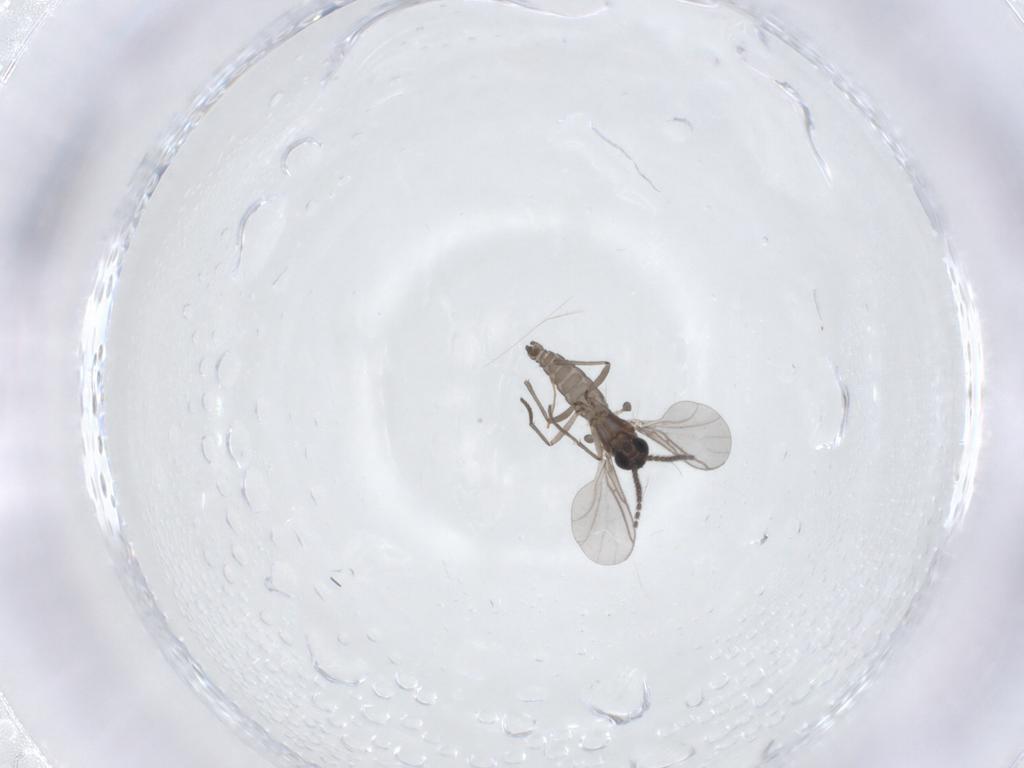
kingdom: Animalia
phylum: Arthropoda
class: Insecta
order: Diptera
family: Chironomidae
